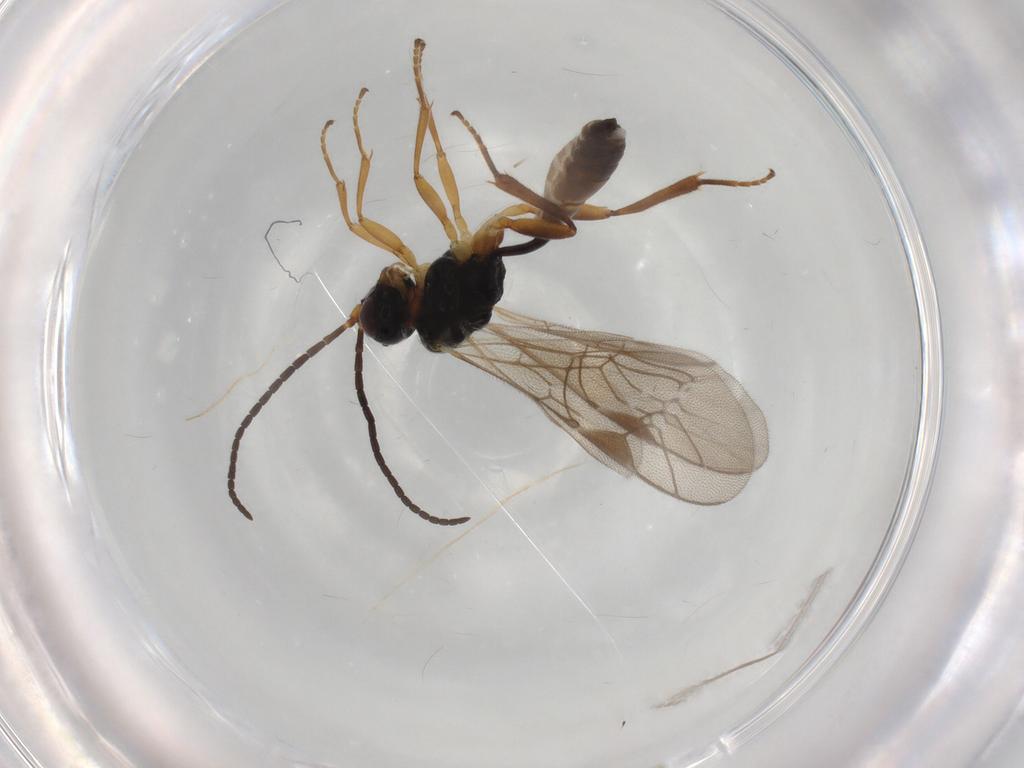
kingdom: Animalia
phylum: Arthropoda
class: Insecta
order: Hymenoptera
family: Ichneumonidae
